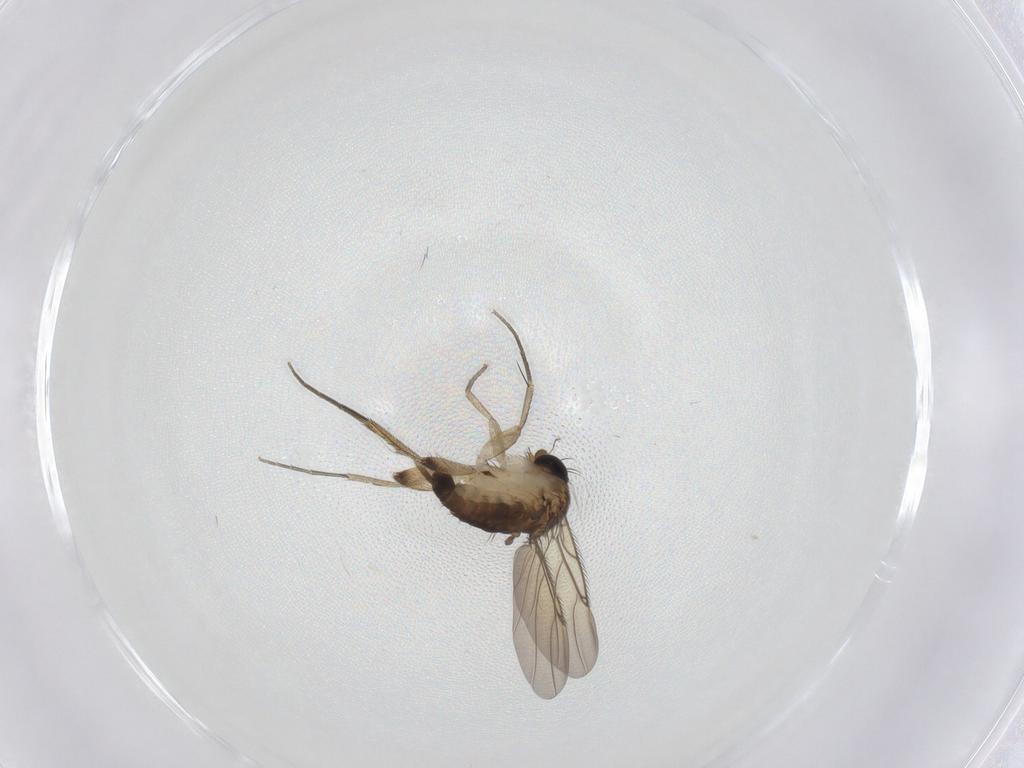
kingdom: Animalia
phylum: Arthropoda
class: Insecta
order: Diptera
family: Phoridae
